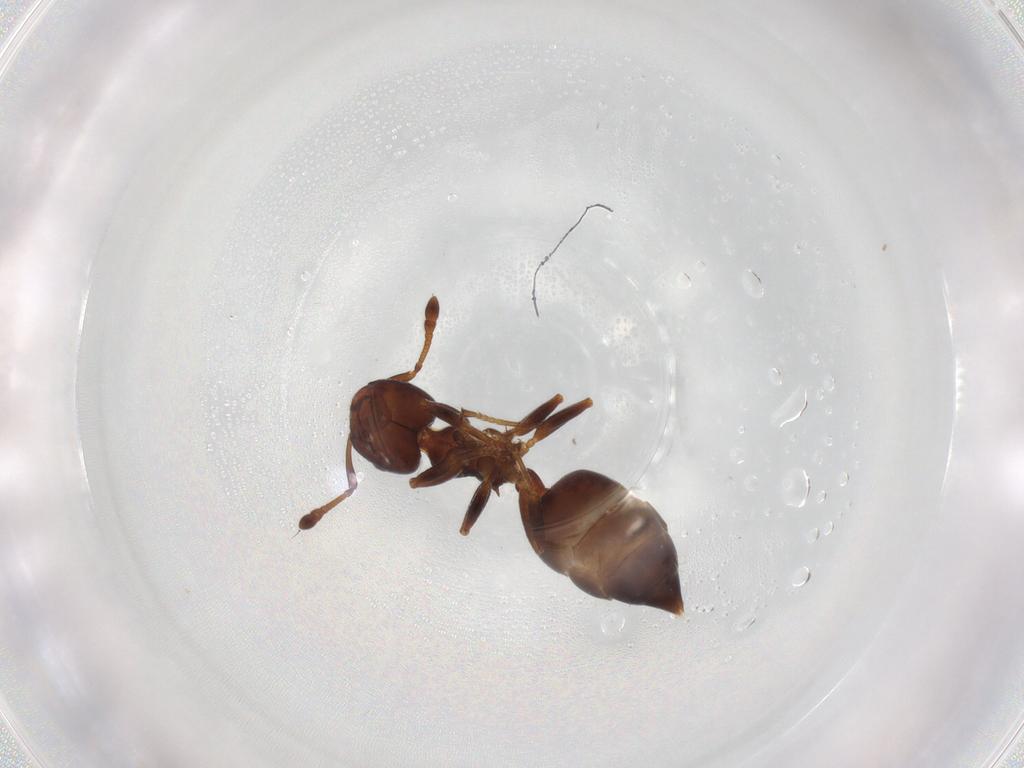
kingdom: Animalia
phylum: Arthropoda
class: Insecta
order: Hymenoptera
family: Formicidae
